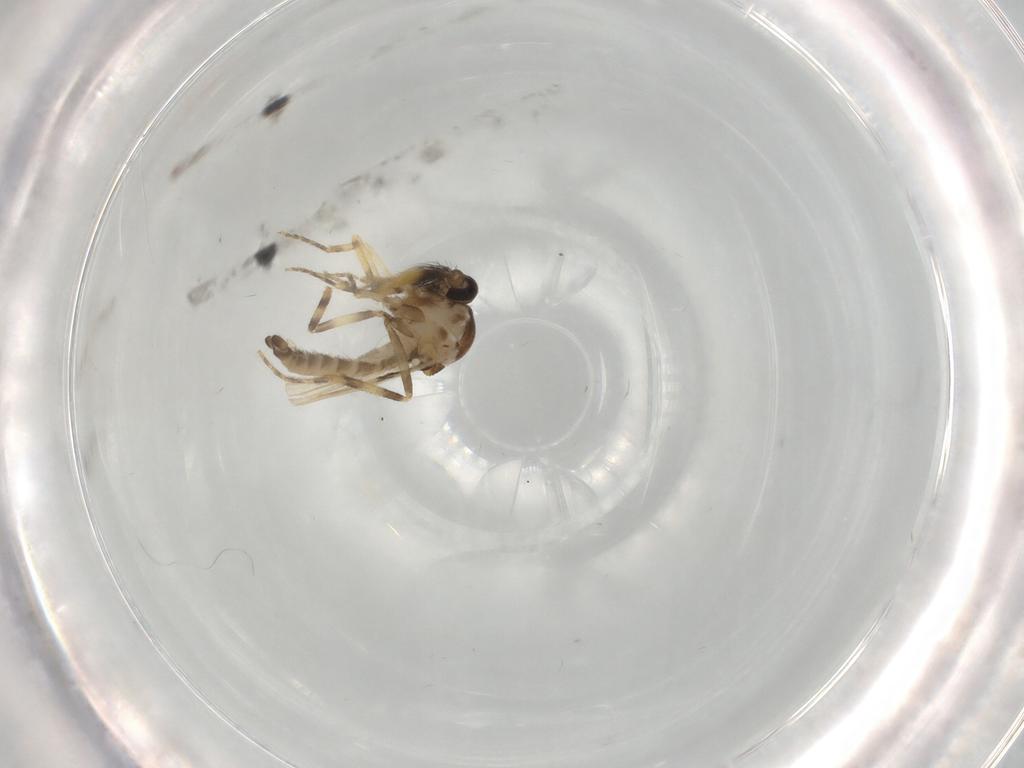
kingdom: Animalia
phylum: Arthropoda
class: Insecta
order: Diptera
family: Ceratopogonidae
